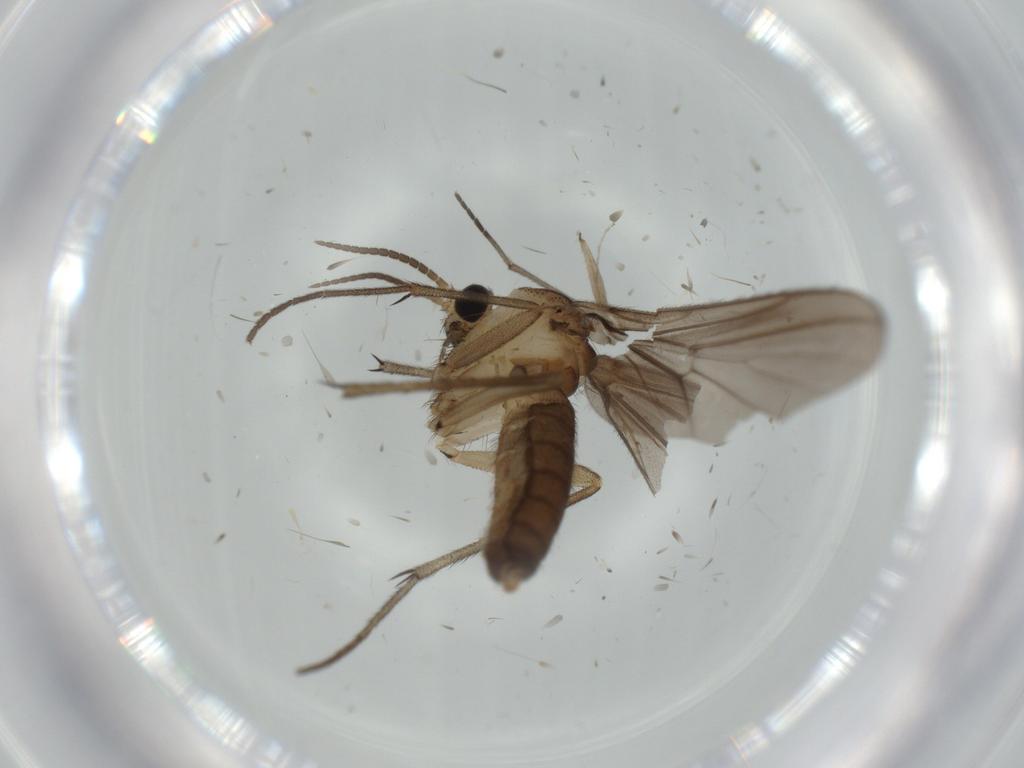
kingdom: Animalia
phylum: Arthropoda
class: Insecta
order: Diptera
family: Cecidomyiidae
